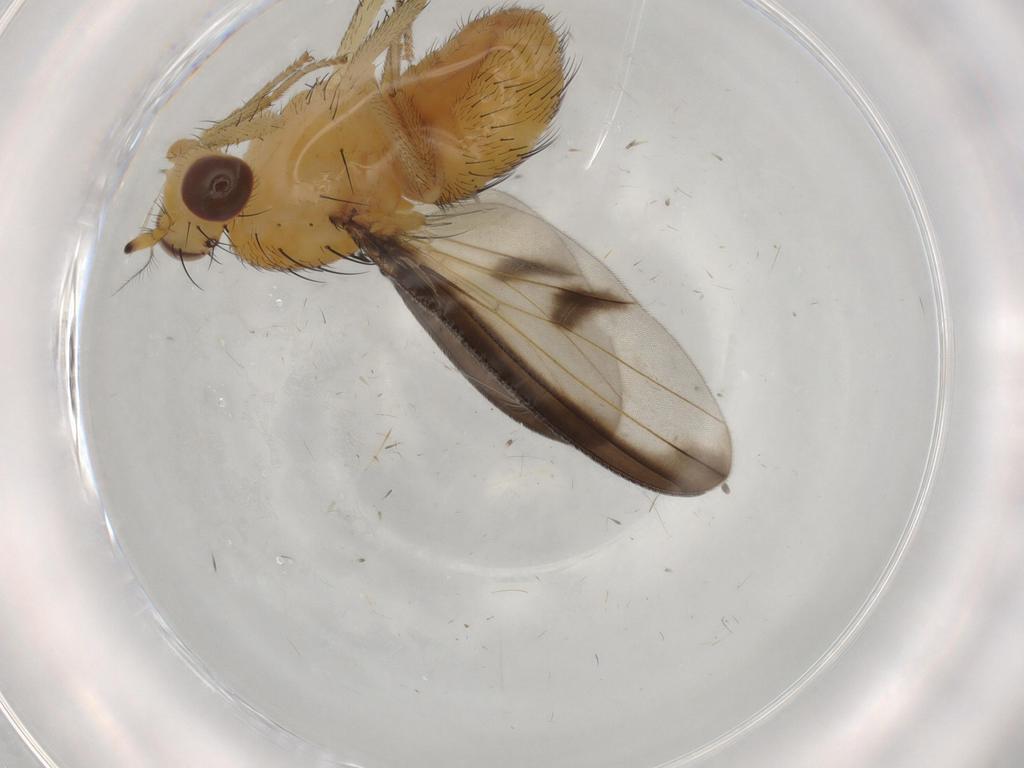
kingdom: Animalia
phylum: Arthropoda
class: Insecta
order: Diptera
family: Lauxaniidae
